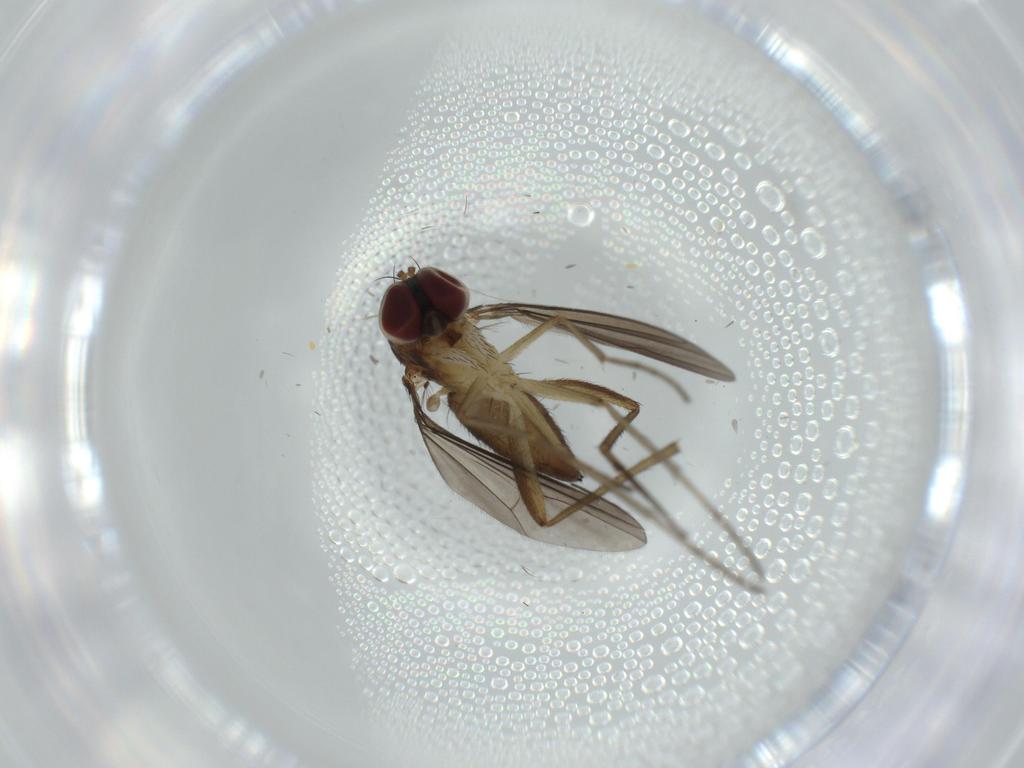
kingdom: Animalia
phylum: Arthropoda
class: Insecta
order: Diptera
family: Dolichopodidae
